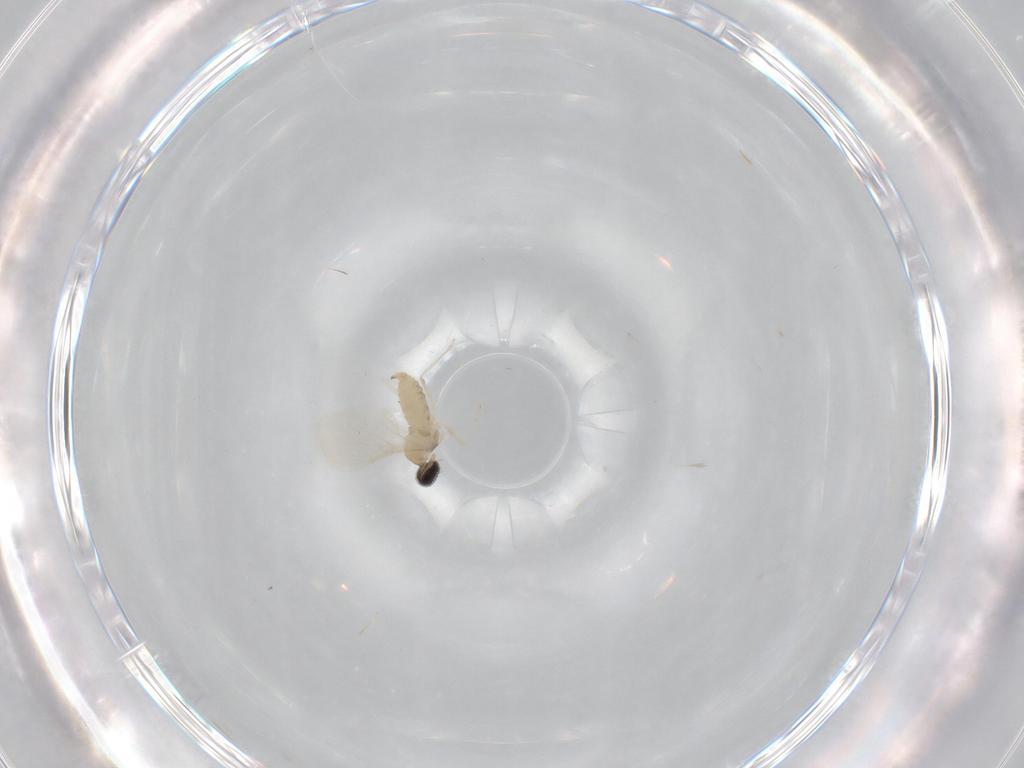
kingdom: Animalia
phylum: Arthropoda
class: Insecta
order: Diptera
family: Cecidomyiidae
